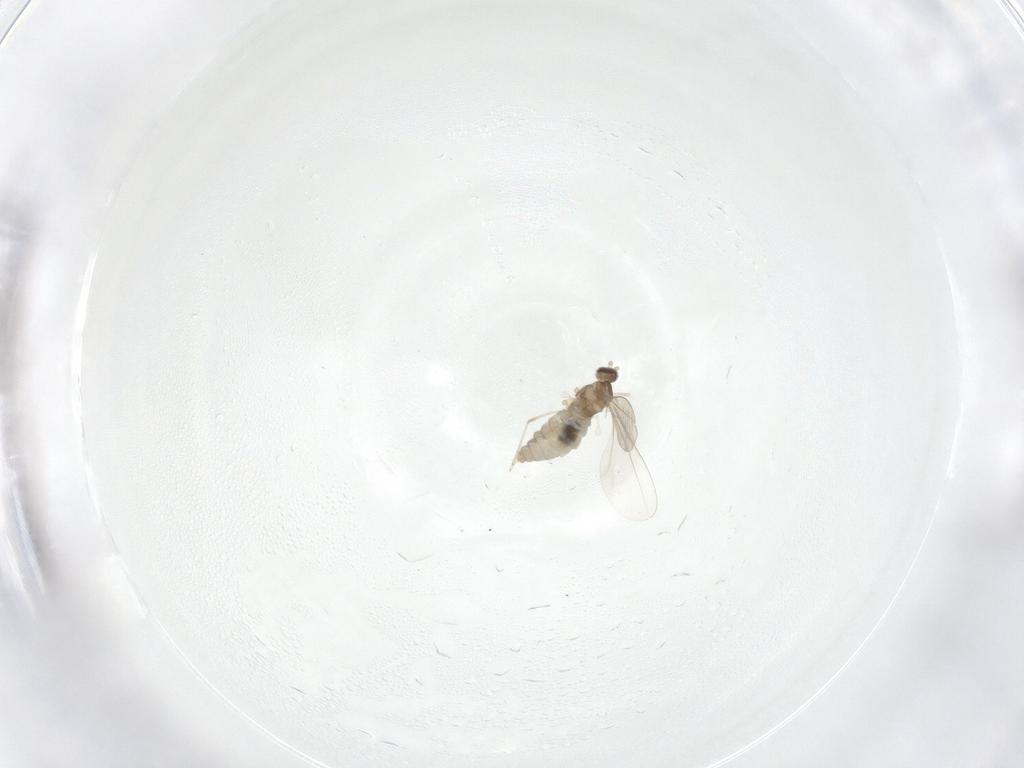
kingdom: Animalia
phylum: Arthropoda
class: Insecta
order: Diptera
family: Cecidomyiidae
